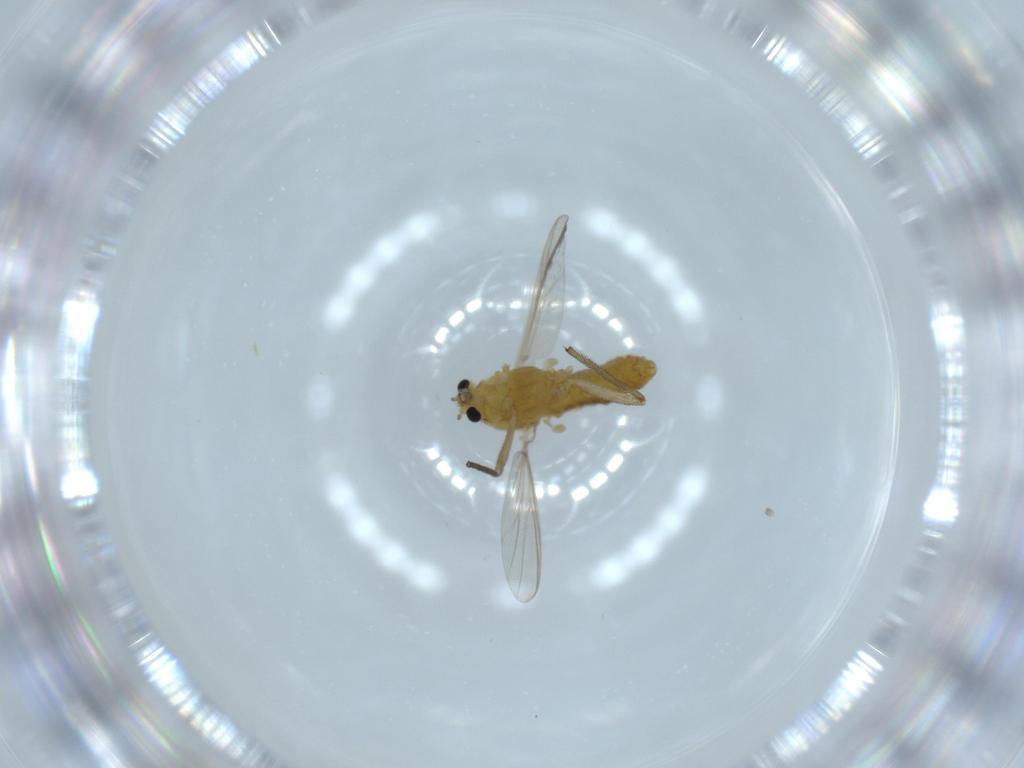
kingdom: Animalia
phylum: Arthropoda
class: Insecta
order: Diptera
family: Chironomidae
